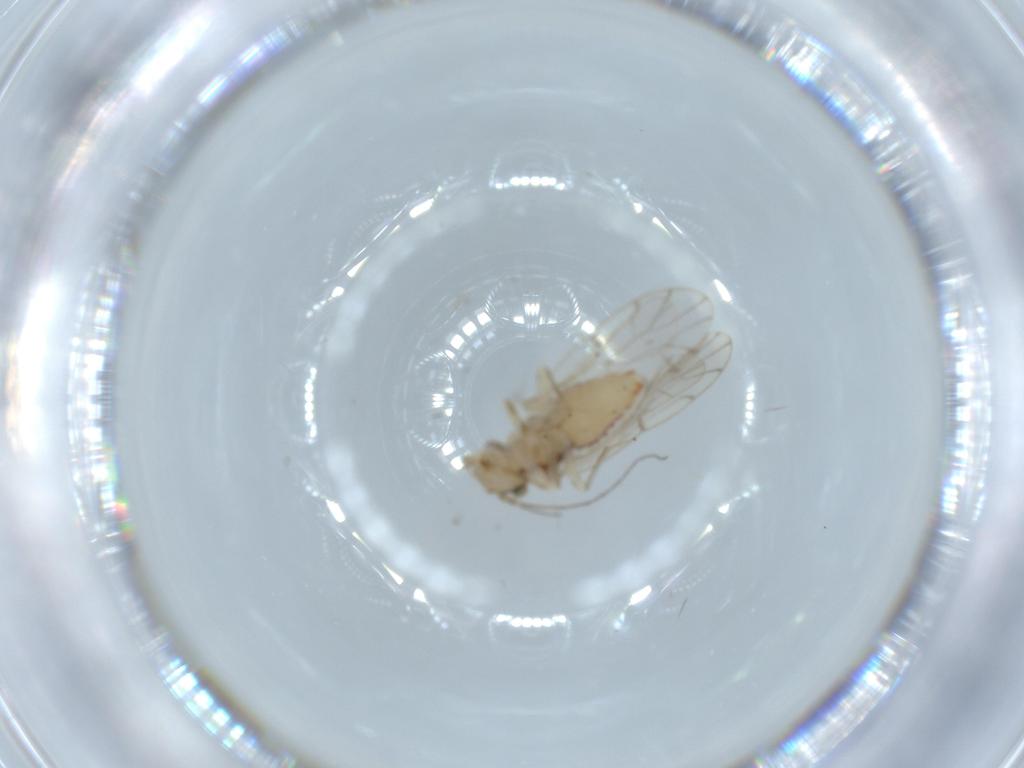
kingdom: Animalia
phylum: Arthropoda
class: Insecta
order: Psocodea
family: Ectopsocidae
